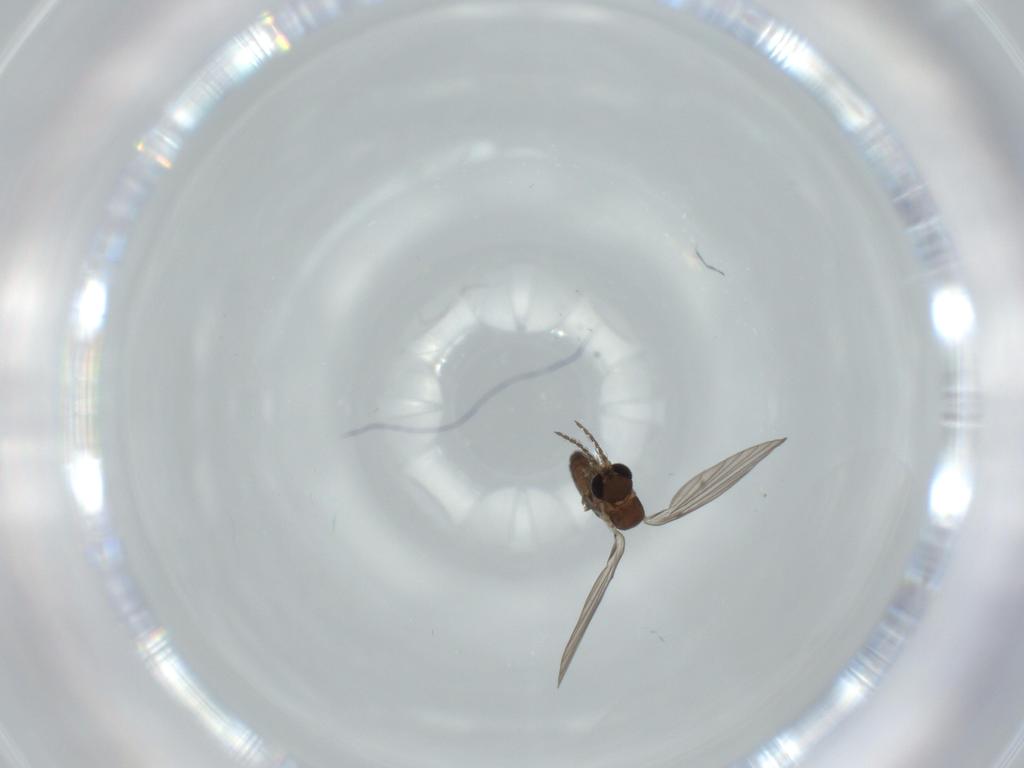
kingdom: Animalia
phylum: Arthropoda
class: Insecta
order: Diptera
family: Psychodidae
